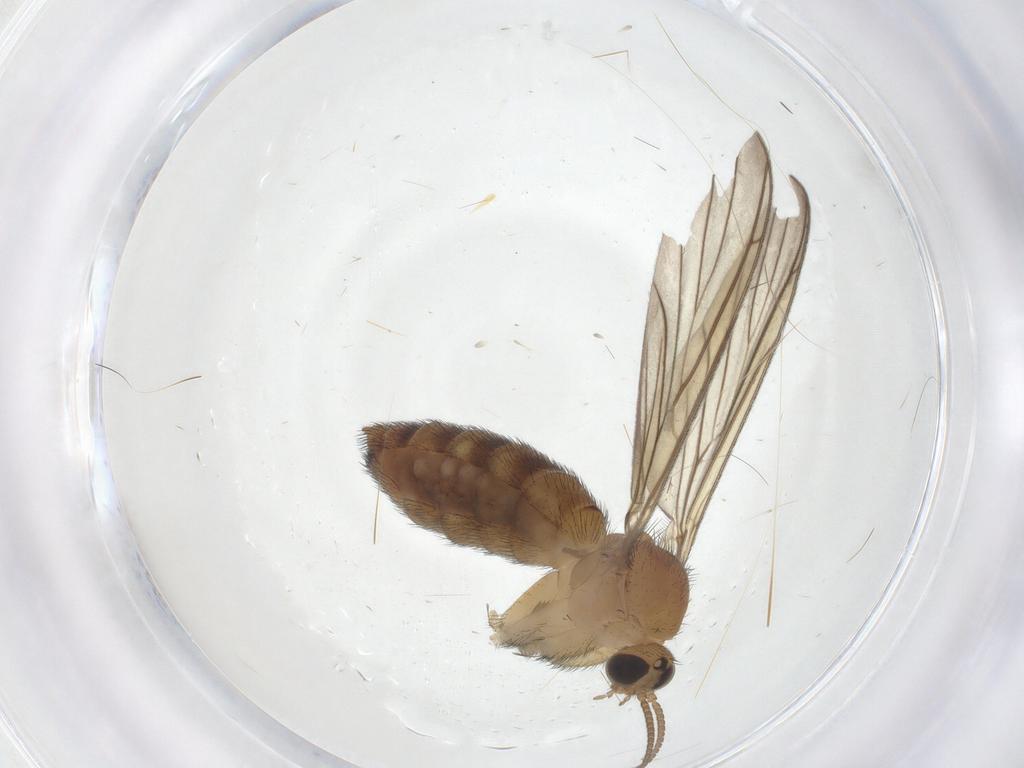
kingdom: Animalia
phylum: Arthropoda
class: Insecta
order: Diptera
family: Keroplatidae
